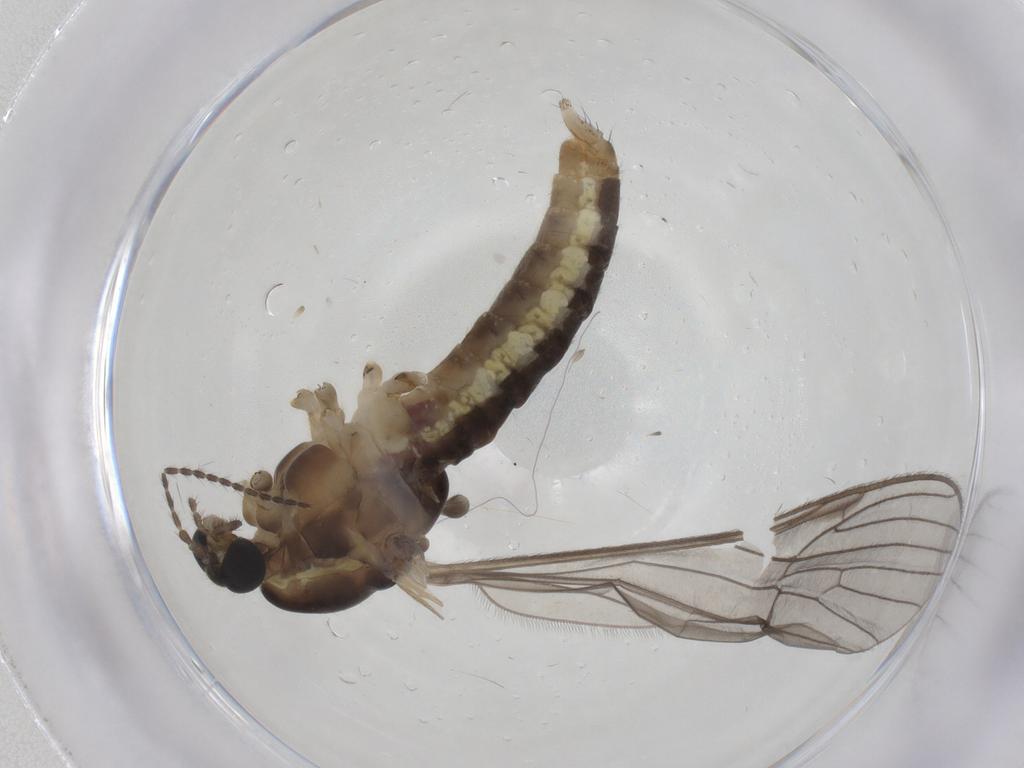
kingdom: Animalia
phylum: Arthropoda
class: Insecta
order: Diptera
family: Limoniidae
